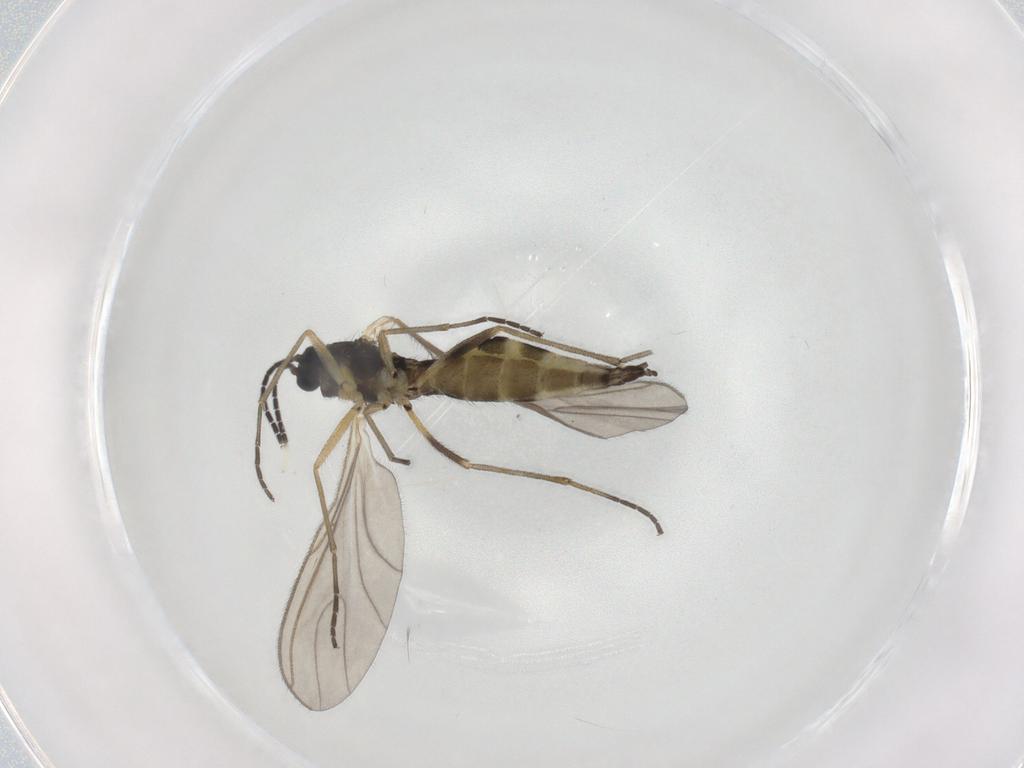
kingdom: Animalia
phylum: Arthropoda
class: Insecta
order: Diptera
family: Sciaridae
